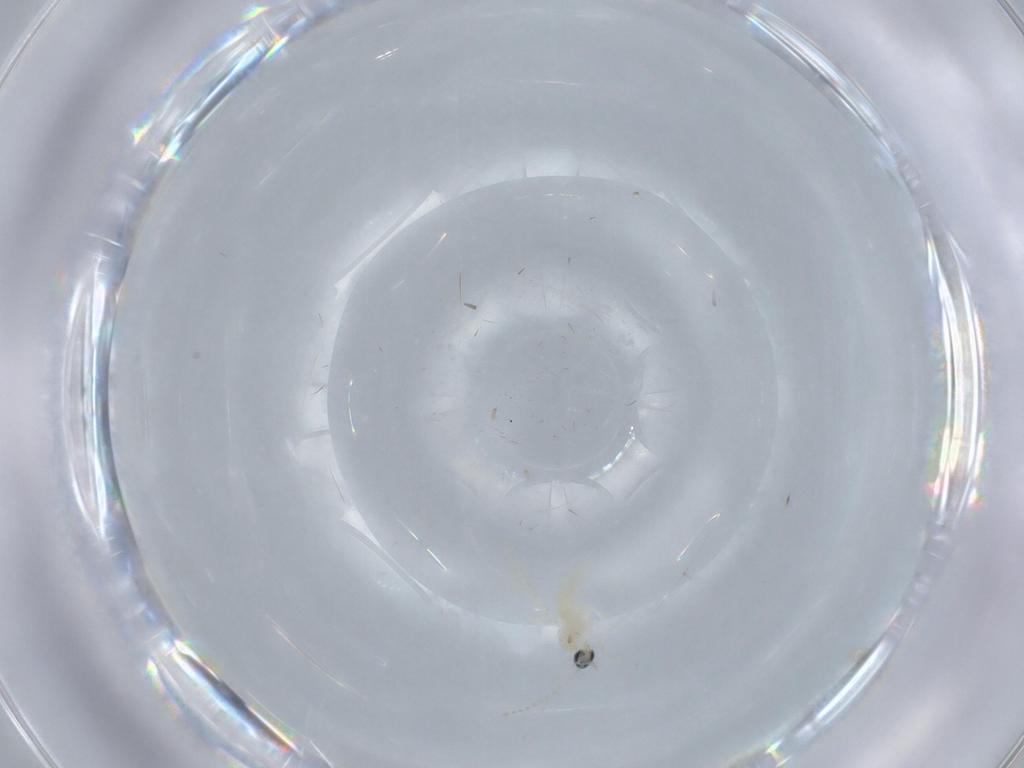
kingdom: Animalia
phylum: Arthropoda
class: Insecta
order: Diptera
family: Cecidomyiidae
